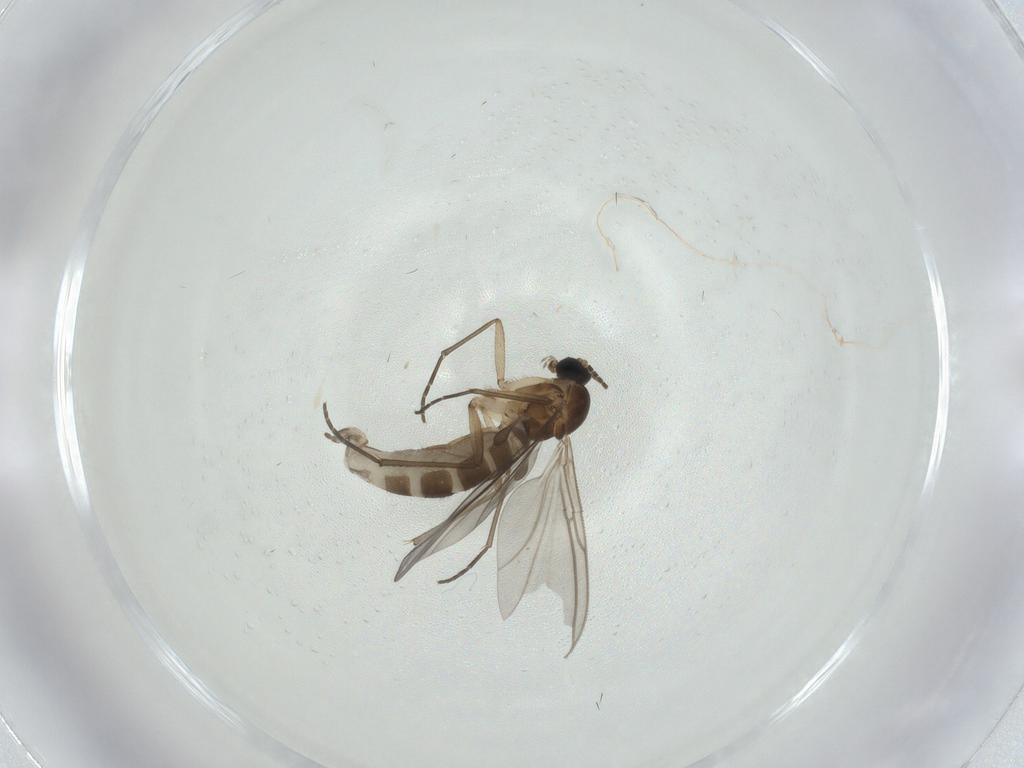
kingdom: Animalia
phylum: Arthropoda
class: Insecta
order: Diptera
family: Sciaridae
